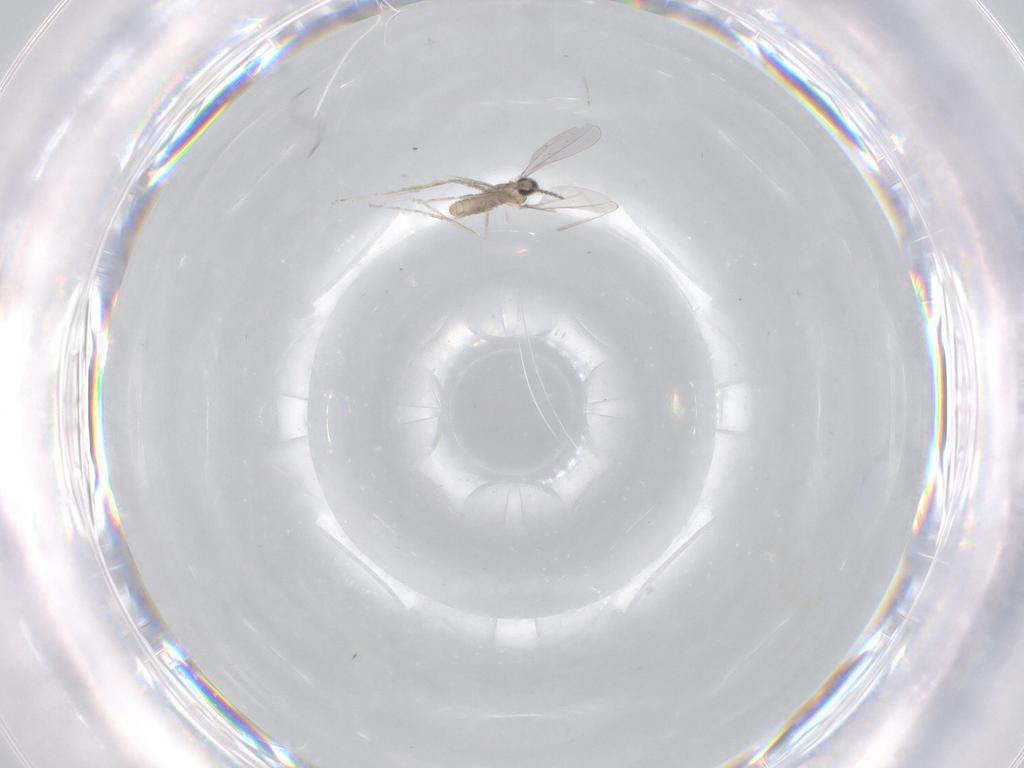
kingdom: Animalia
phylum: Arthropoda
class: Insecta
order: Diptera
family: Chironomidae
